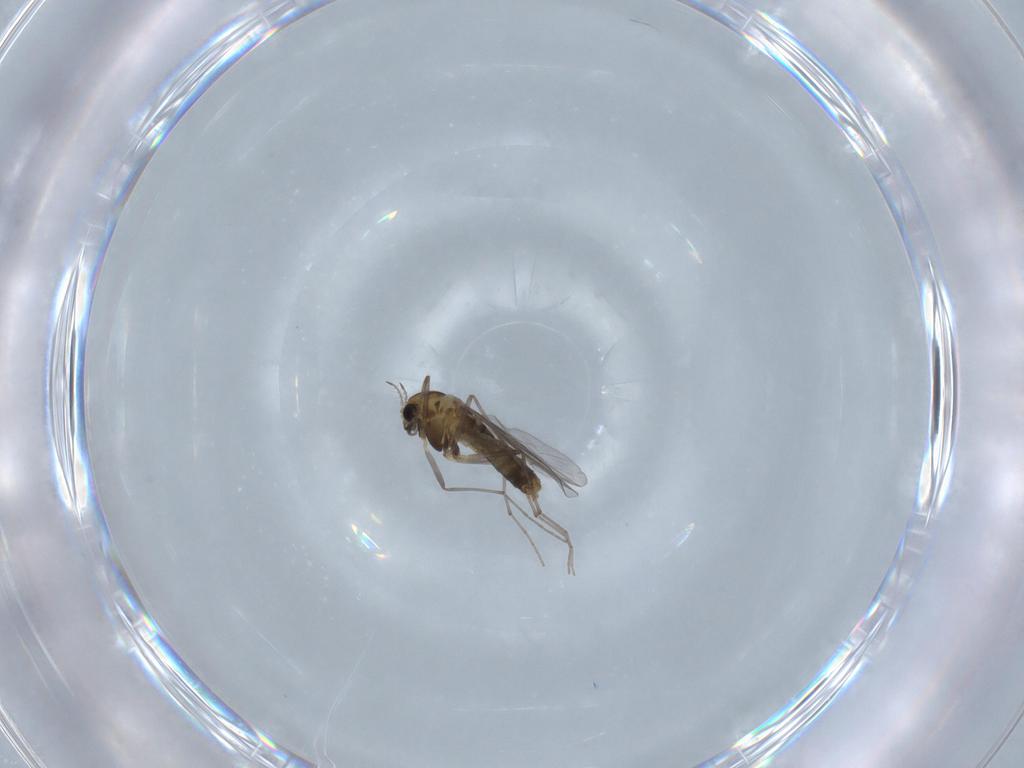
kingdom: Animalia
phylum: Arthropoda
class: Insecta
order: Diptera
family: Chironomidae
